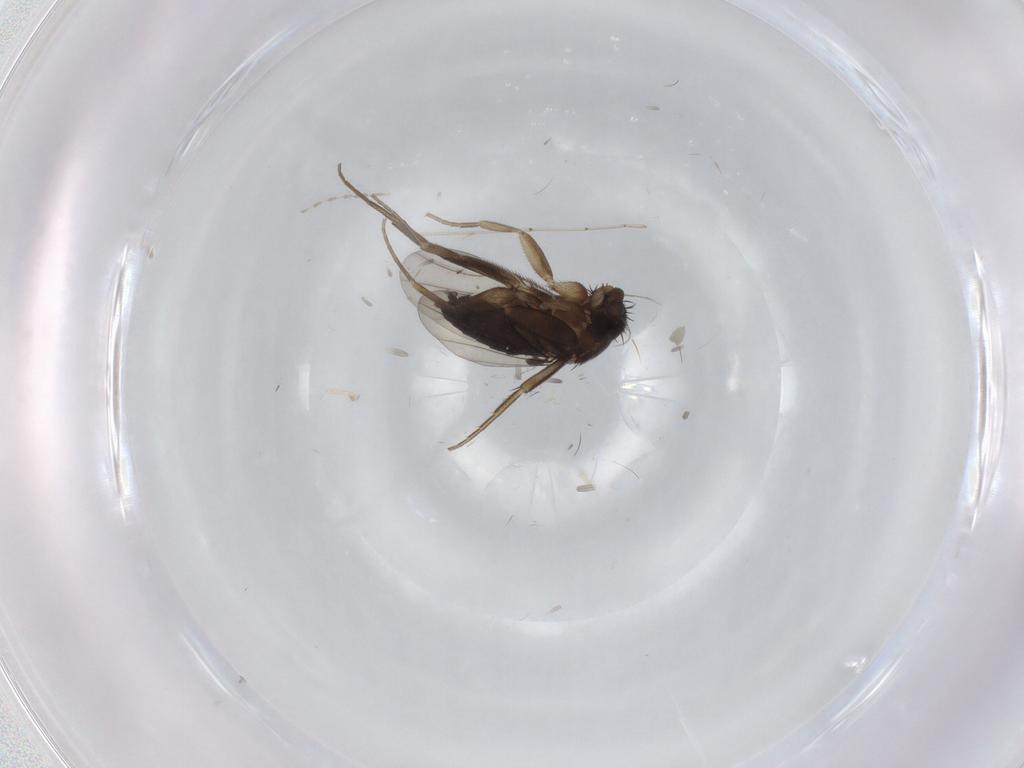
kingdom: Animalia
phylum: Arthropoda
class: Insecta
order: Diptera
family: Phoridae
